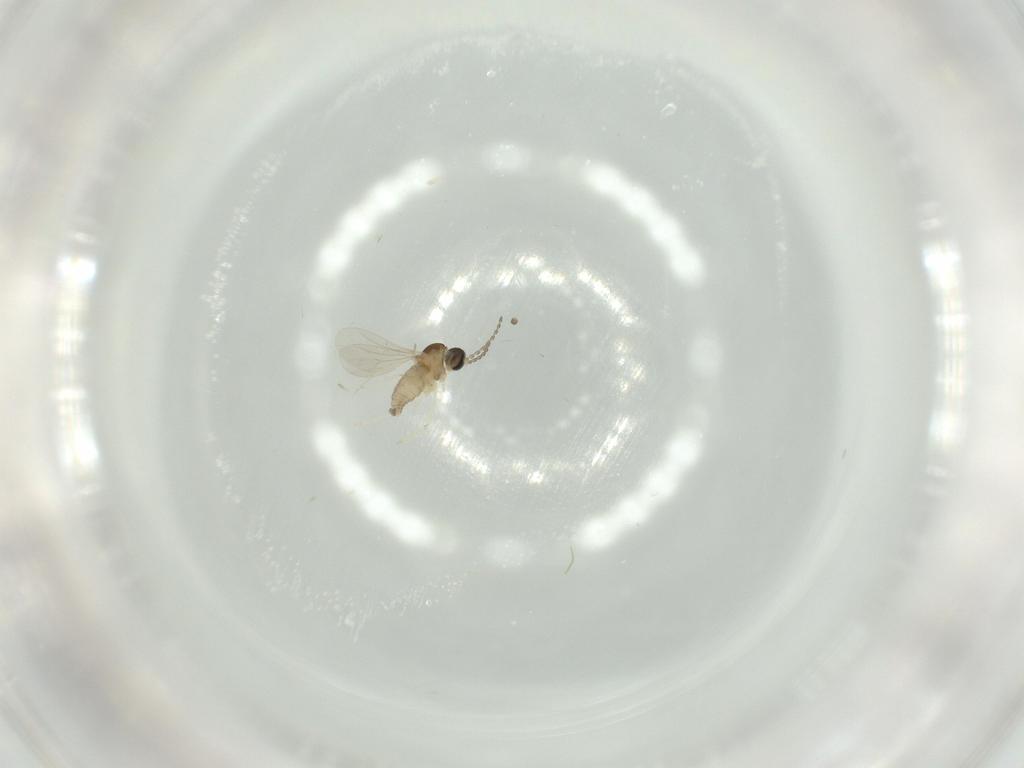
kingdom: Animalia
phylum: Arthropoda
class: Insecta
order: Diptera
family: Cecidomyiidae
